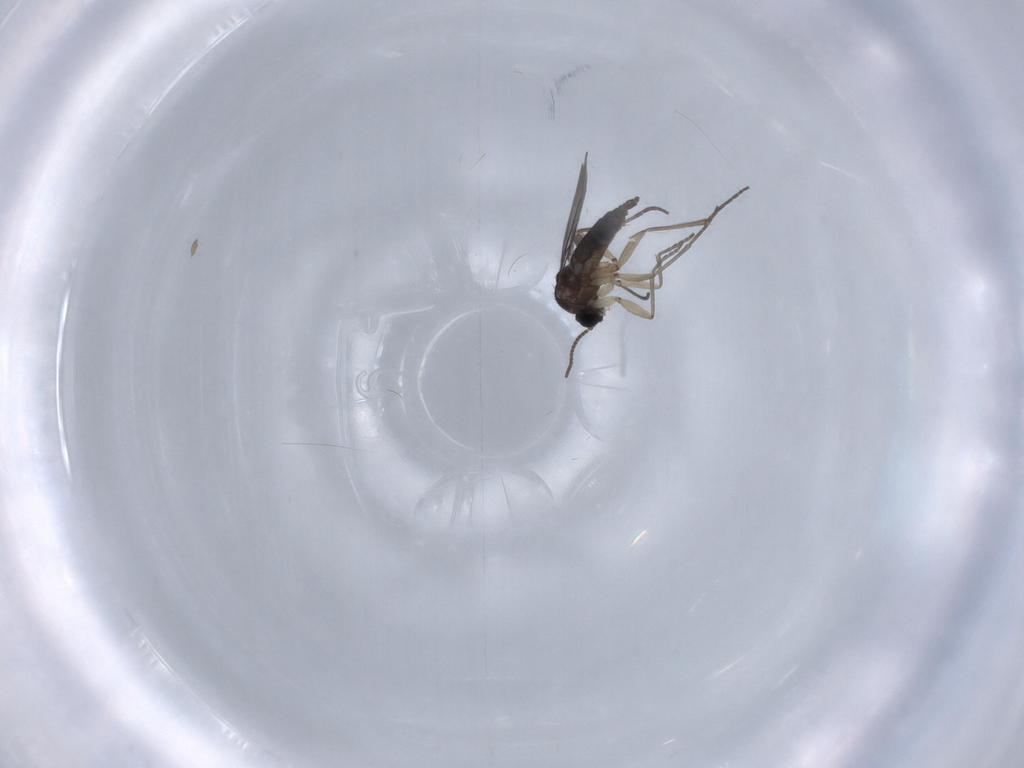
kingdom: Animalia
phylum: Arthropoda
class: Insecta
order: Diptera
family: Sciaridae
